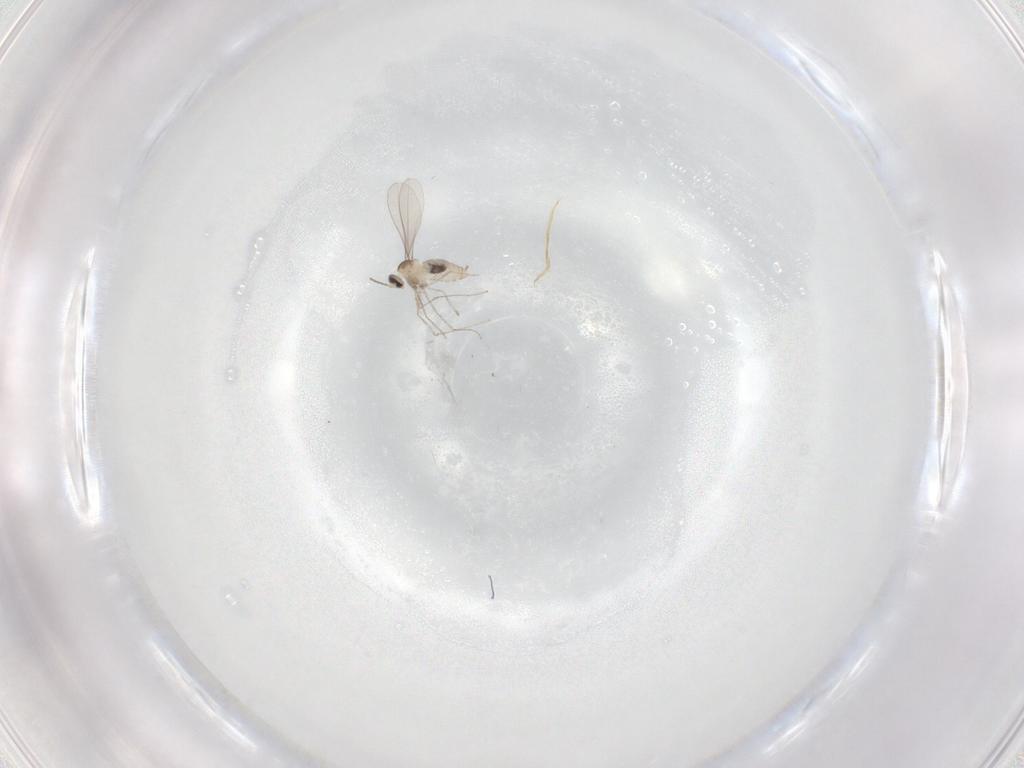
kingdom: Animalia
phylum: Arthropoda
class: Insecta
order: Diptera
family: Cecidomyiidae
